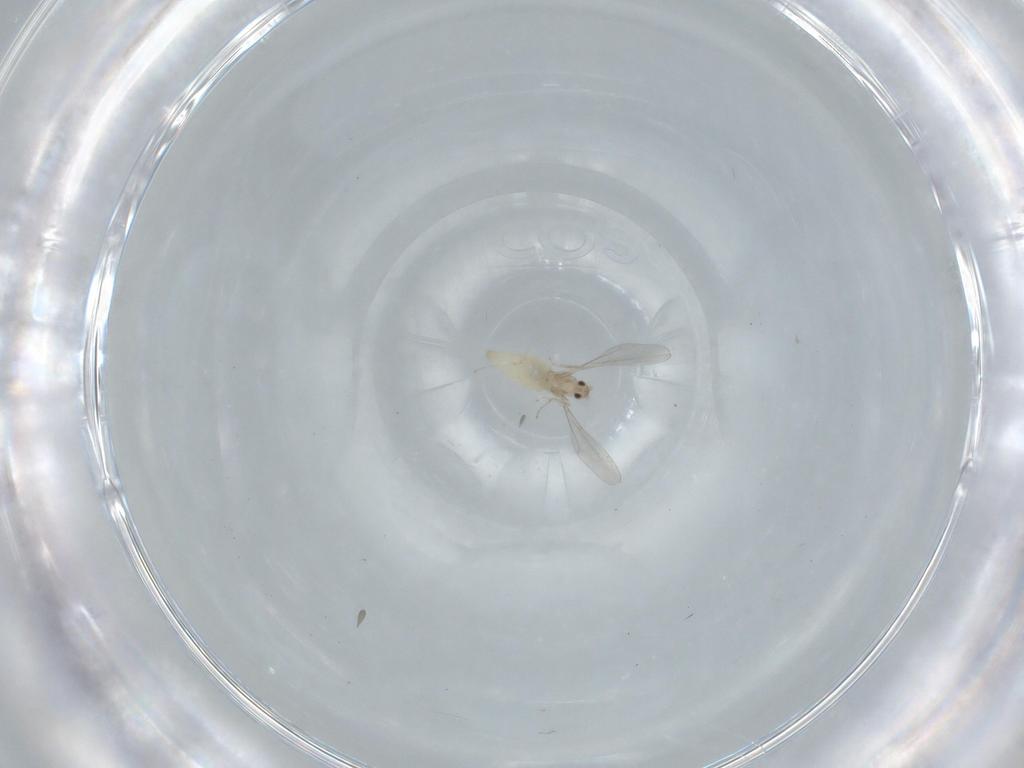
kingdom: Animalia
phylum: Arthropoda
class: Insecta
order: Diptera
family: Cecidomyiidae
